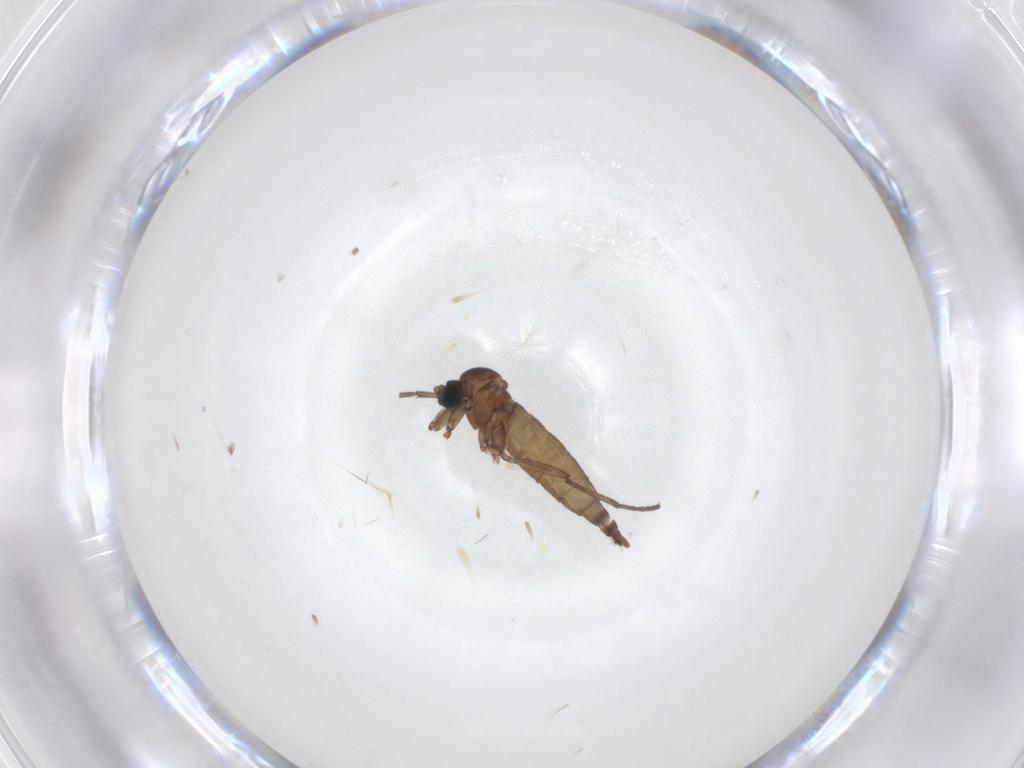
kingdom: Animalia
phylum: Arthropoda
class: Insecta
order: Diptera
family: Sciaridae
